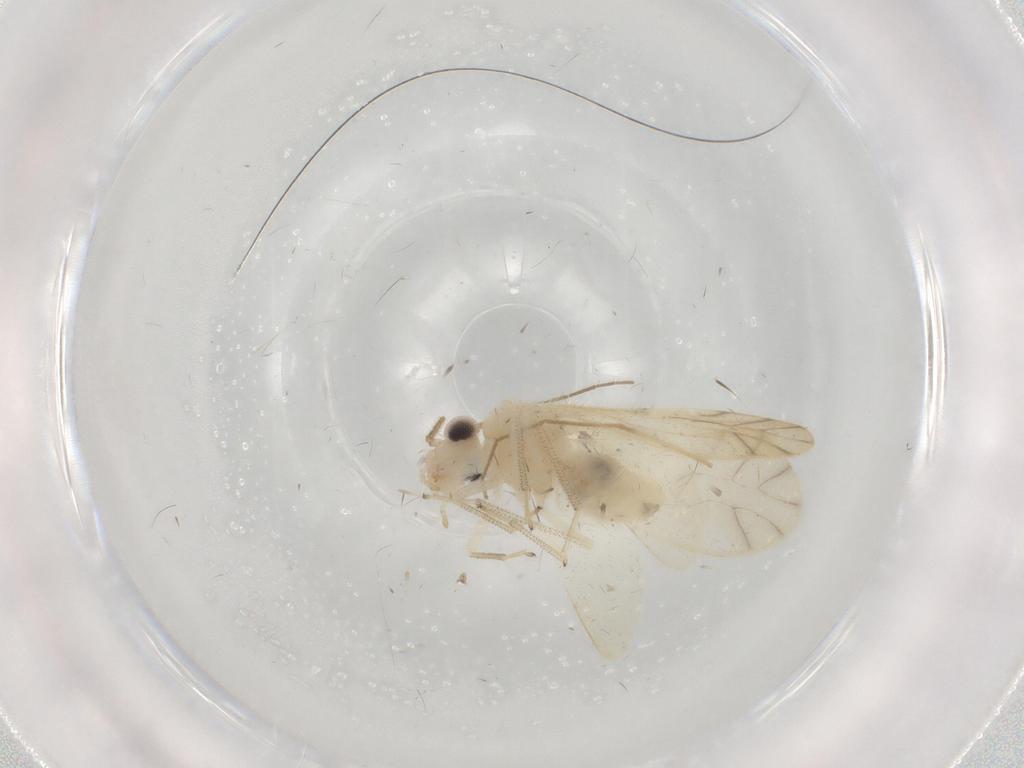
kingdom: Animalia
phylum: Arthropoda
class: Insecta
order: Psocodea
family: Caeciliusidae
